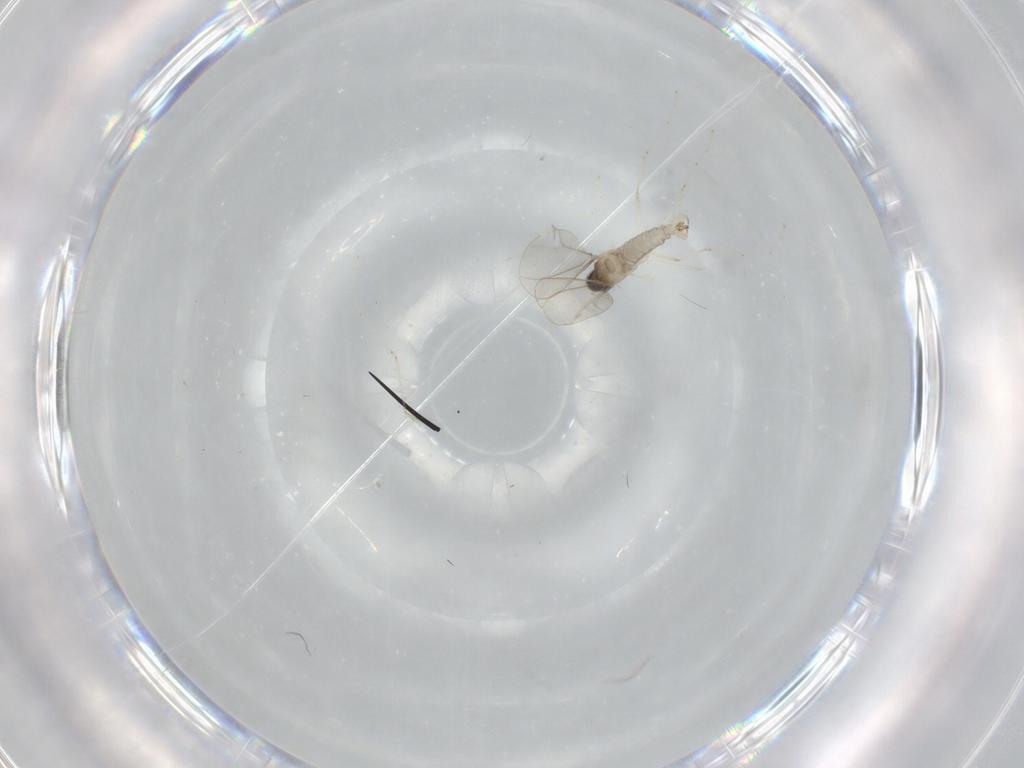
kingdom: Animalia
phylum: Arthropoda
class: Insecta
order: Diptera
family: Cecidomyiidae
